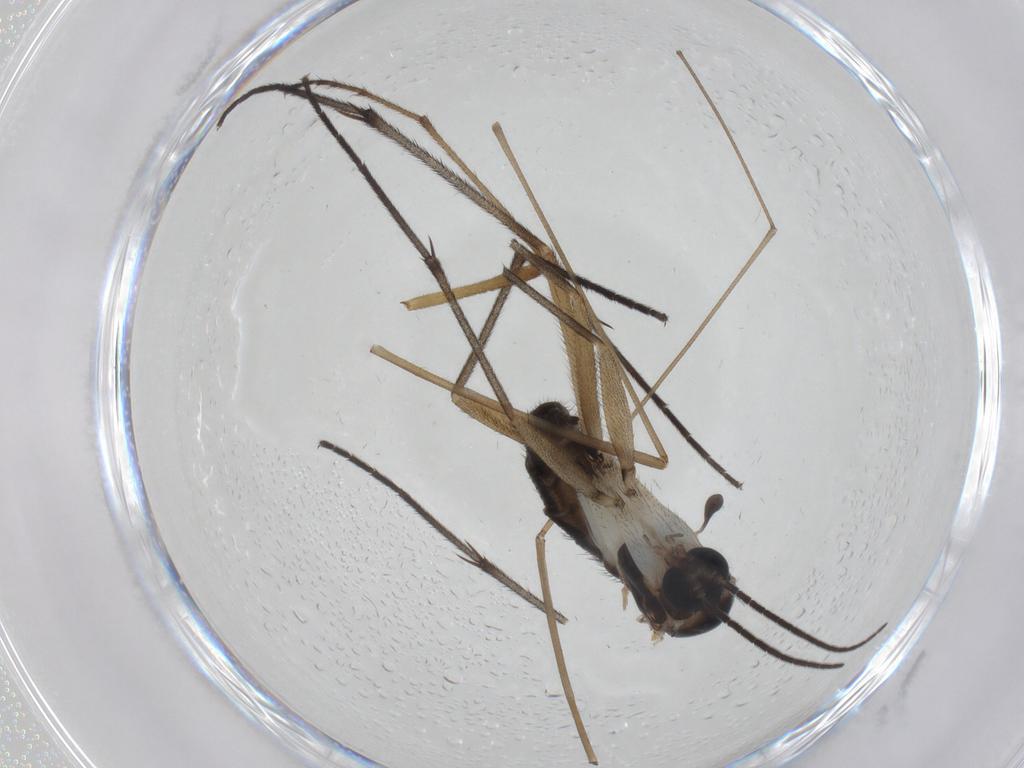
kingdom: Animalia
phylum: Arthropoda
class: Insecta
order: Diptera
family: Sciaridae
